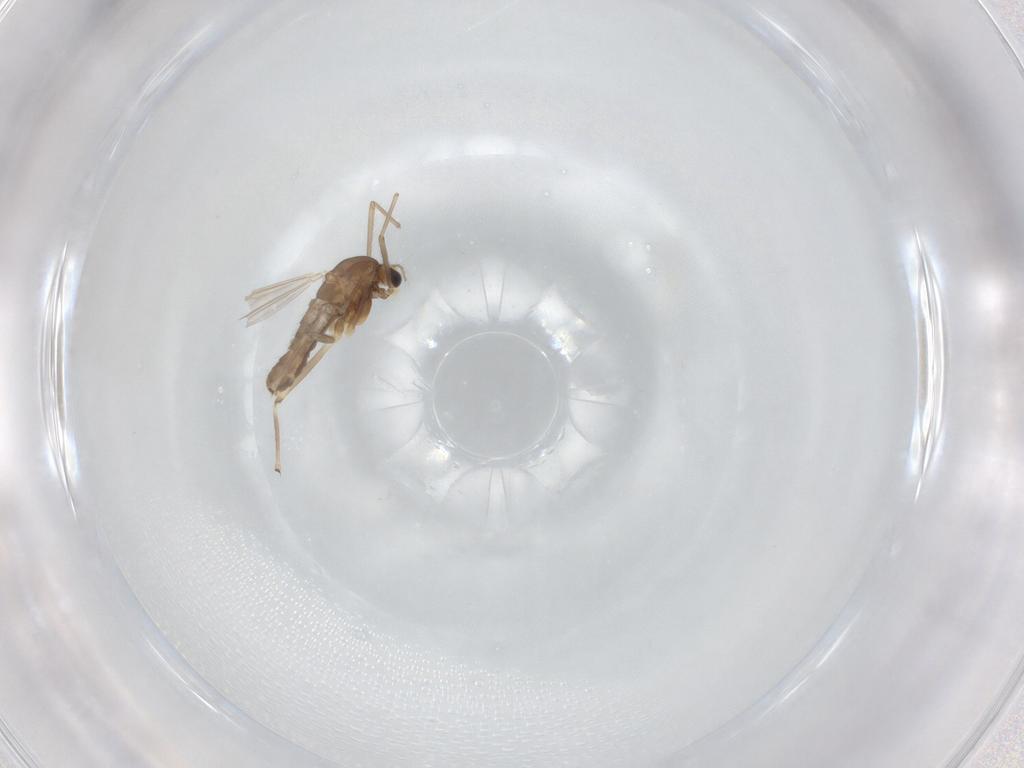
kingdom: Animalia
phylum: Arthropoda
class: Insecta
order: Diptera
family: Chironomidae
